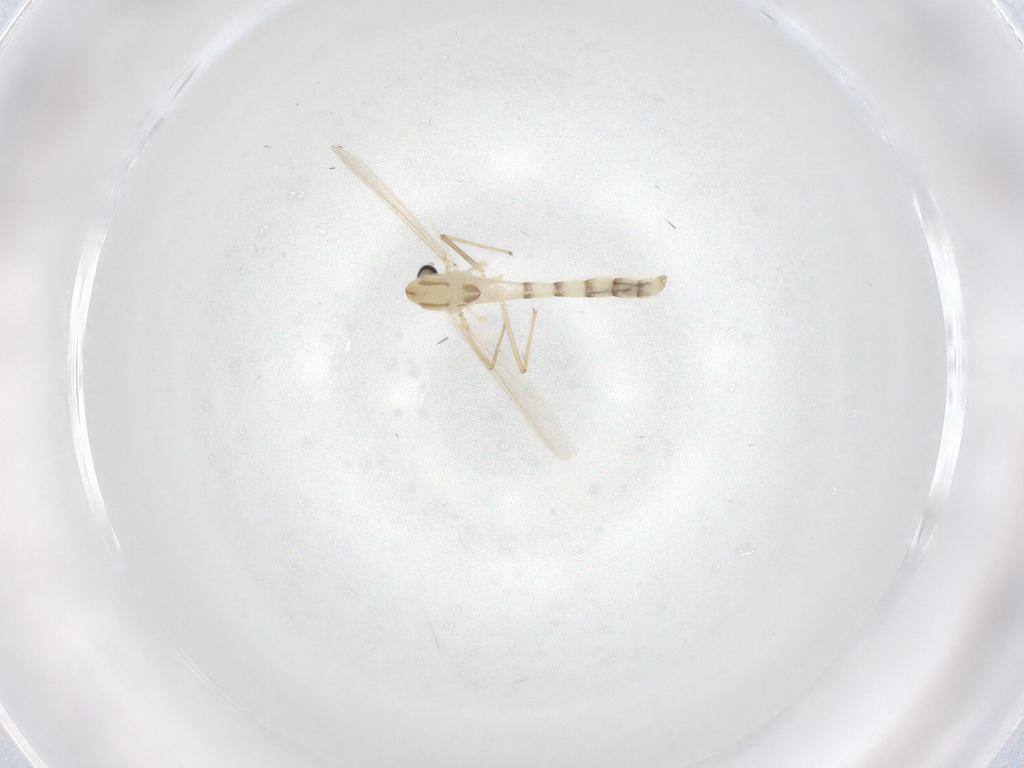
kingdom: Animalia
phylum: Arthropoda
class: Insecta
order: Diptera
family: Chironomidae
